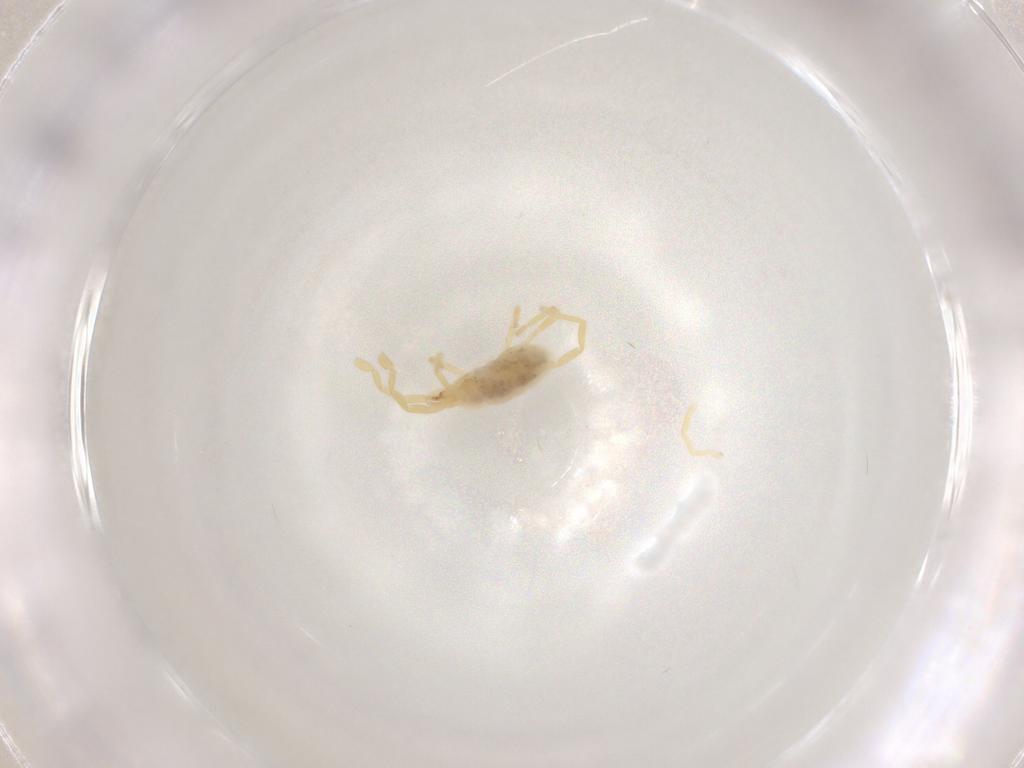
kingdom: Animalia
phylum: Arthropoda
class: Arachnida
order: Trombidiformes
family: Erythraeidae
